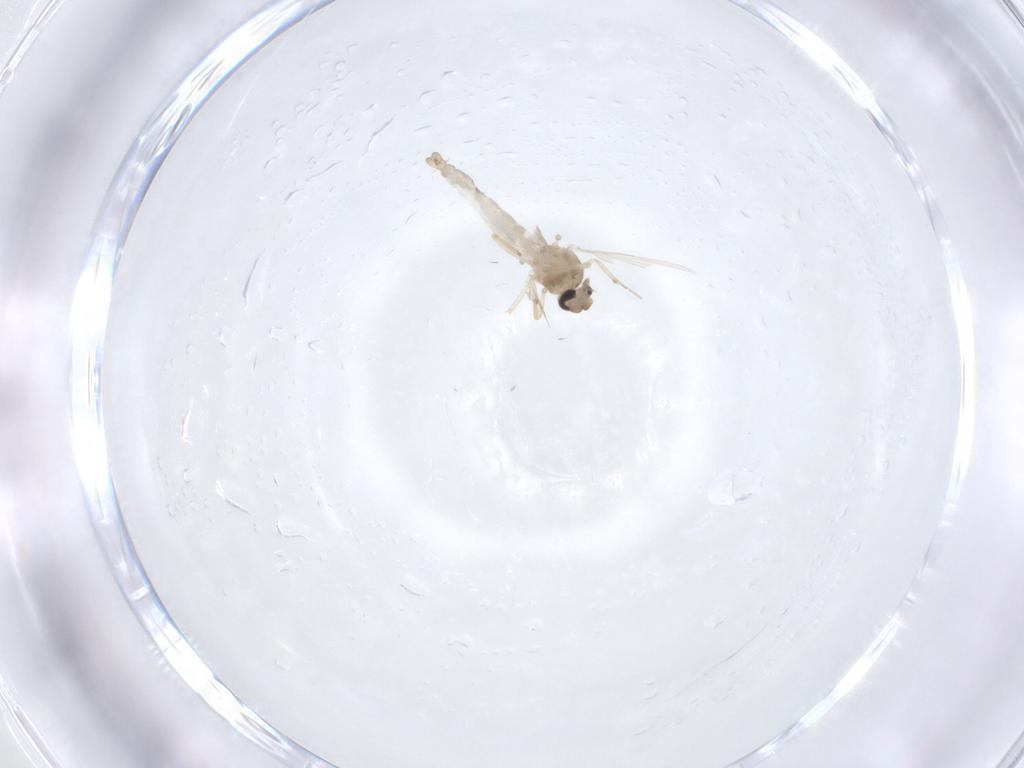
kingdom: Animalia
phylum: Arthropoda
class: Insecta
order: Diptera
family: Ceratopogonidae
